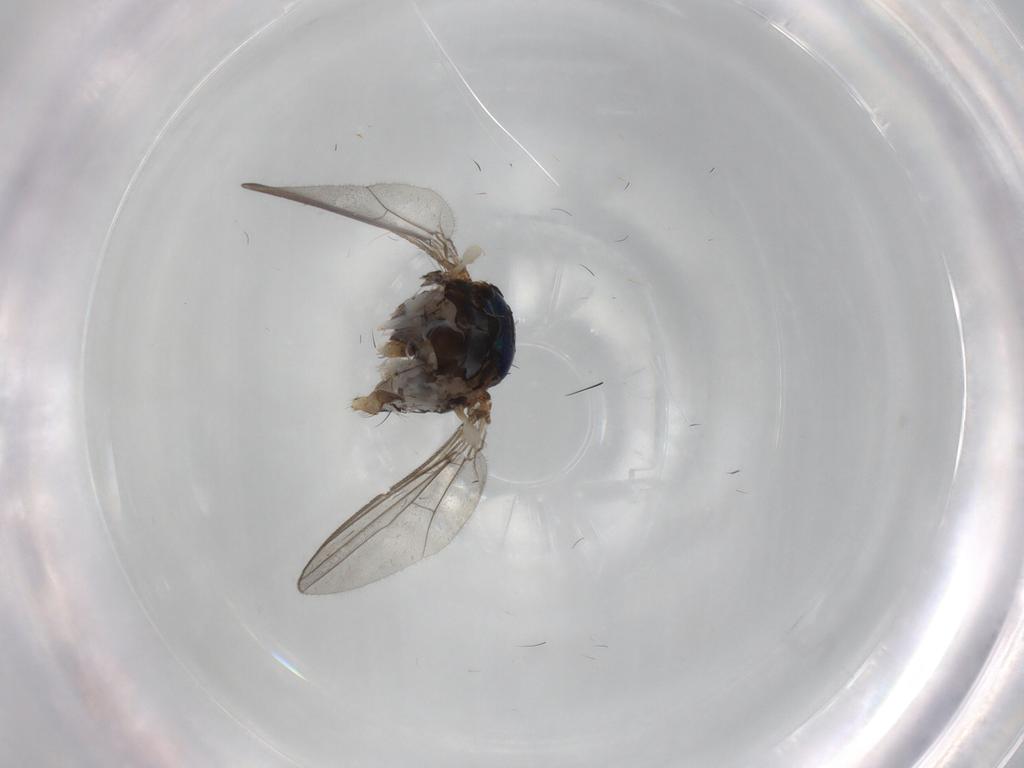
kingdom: Animalia
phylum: Arthropoda
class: Insecta
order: Diptera
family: Dolichopodidae
